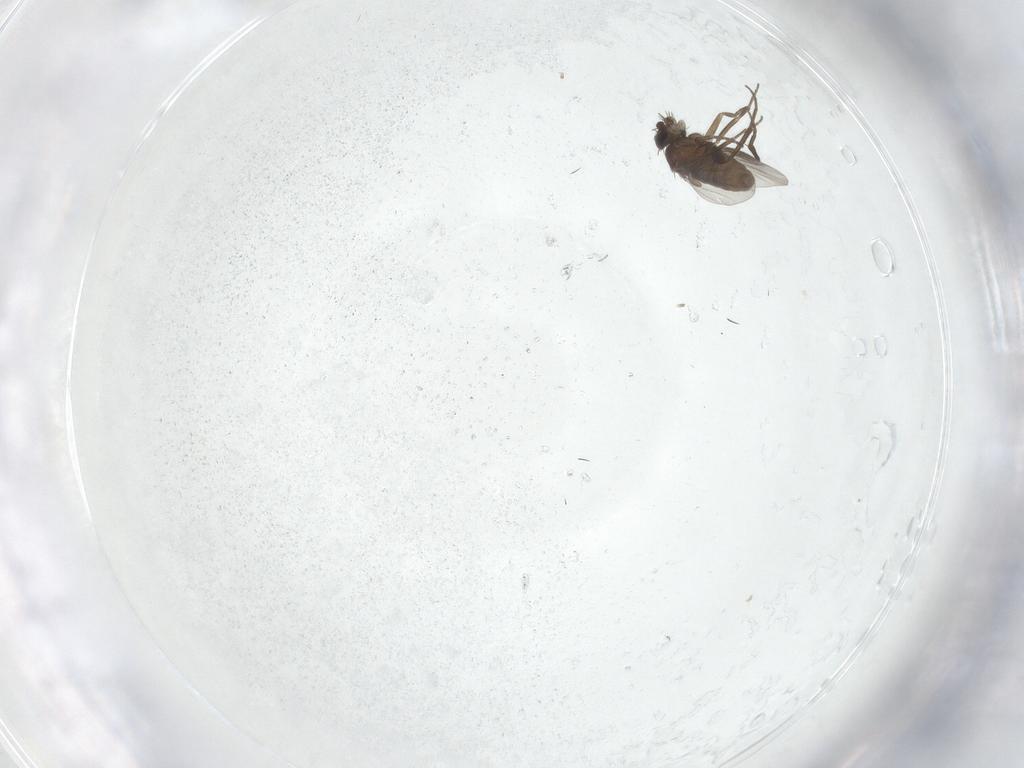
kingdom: Animalia
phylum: Arthropoda
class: Insecta
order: Diptera
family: Phoridae
